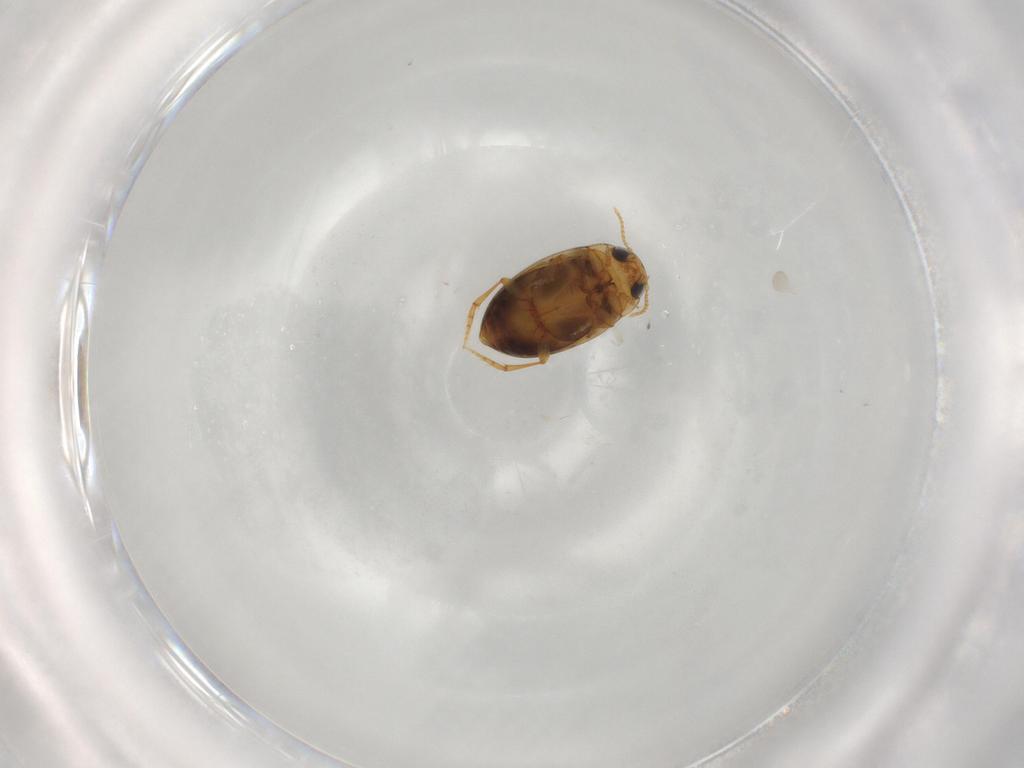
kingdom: Animalia
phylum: Arthropoda
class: Insecta
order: Coleoptera
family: Dytiscidae
